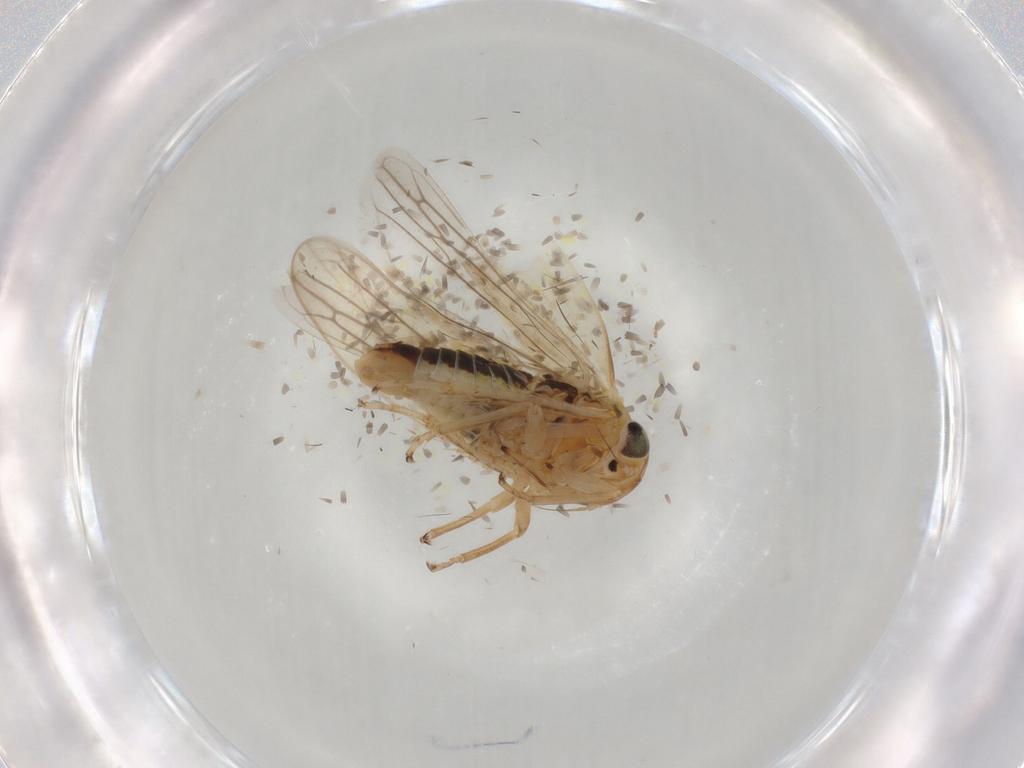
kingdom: Animalia
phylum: Arthropoda
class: Insecta
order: Hemiptera
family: Cicadellidae
